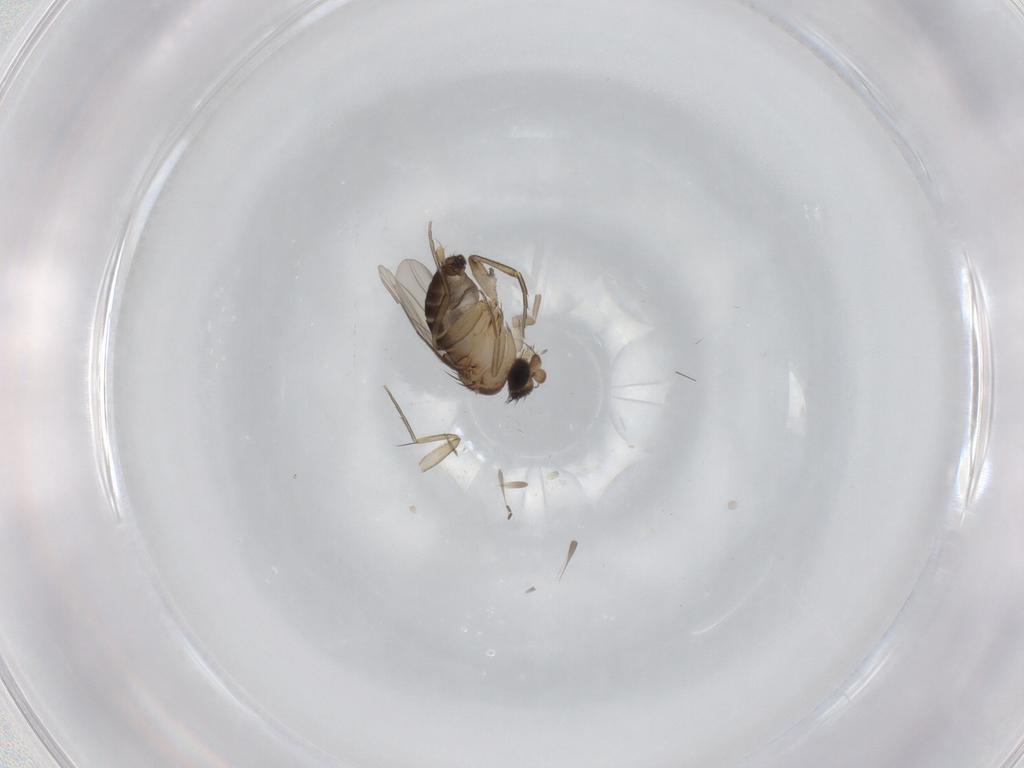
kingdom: Animalia
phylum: Arthropoda
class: Insecta
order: Diptera
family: Phoridae
